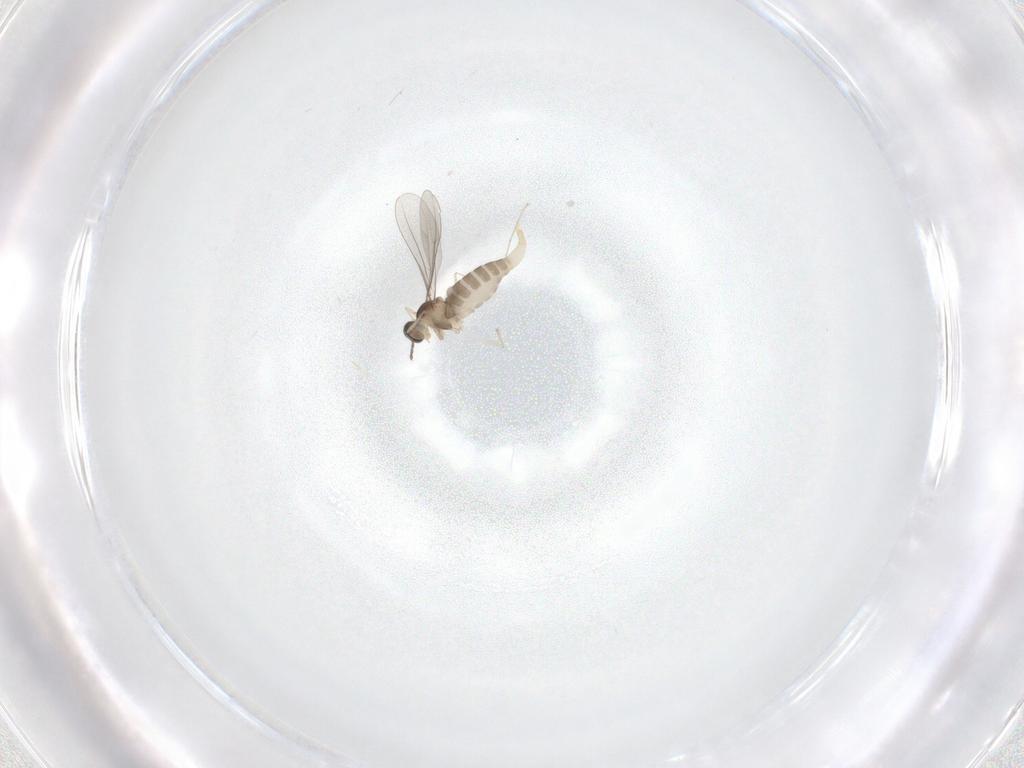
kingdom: Animalia
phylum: Arthropoda
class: Insecta
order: Diptera
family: Cecidomyiidae
